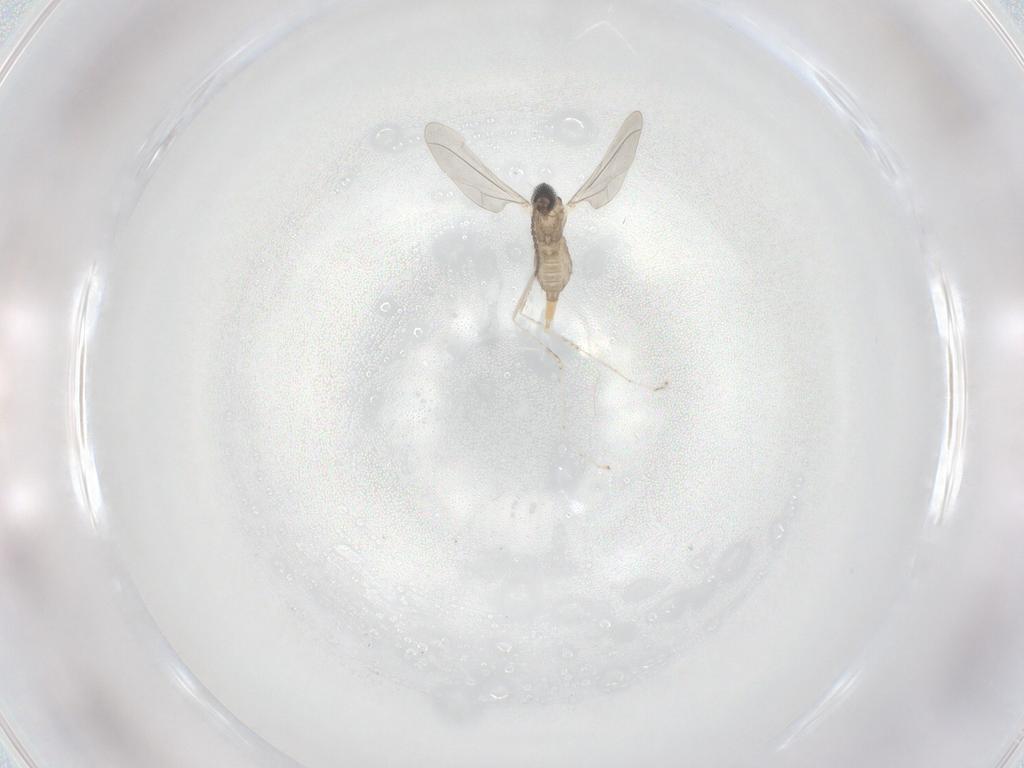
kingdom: Animalia
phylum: Arthropoda
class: Insecta
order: Diptera
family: Cecidomyiidae
